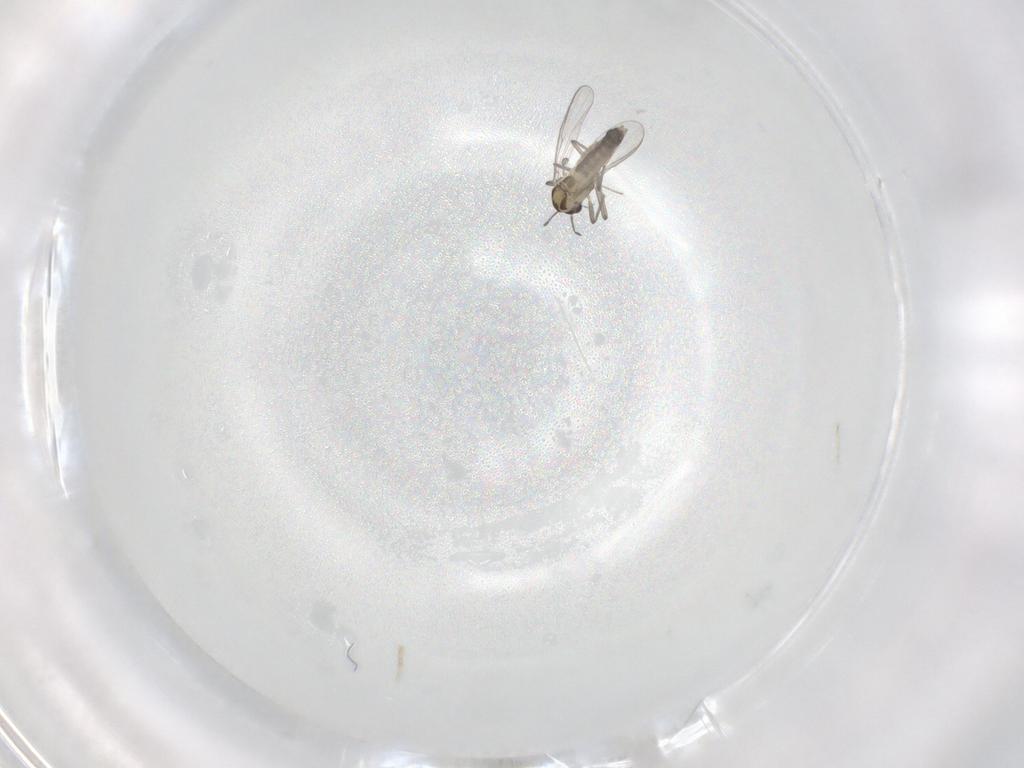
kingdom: Animalia
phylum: Arthropoda
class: Insecta
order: Diptera
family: Chironomidae
